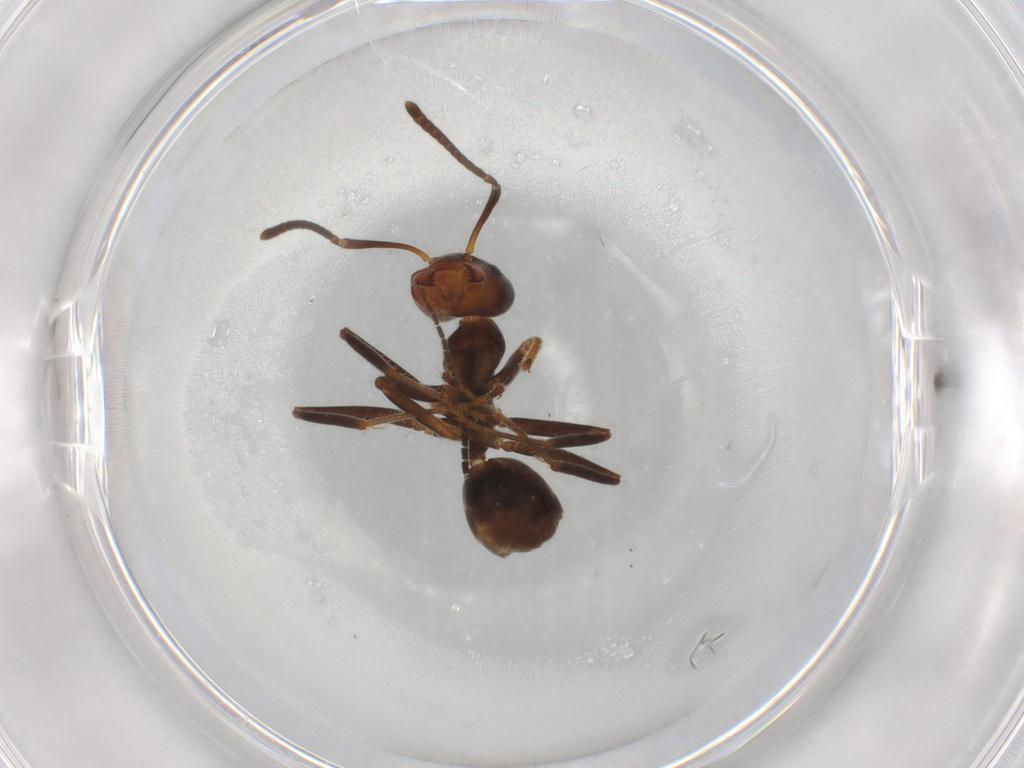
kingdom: Animalia
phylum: Arthropoda
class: Insecta
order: Hymenoptera
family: Formicidae
